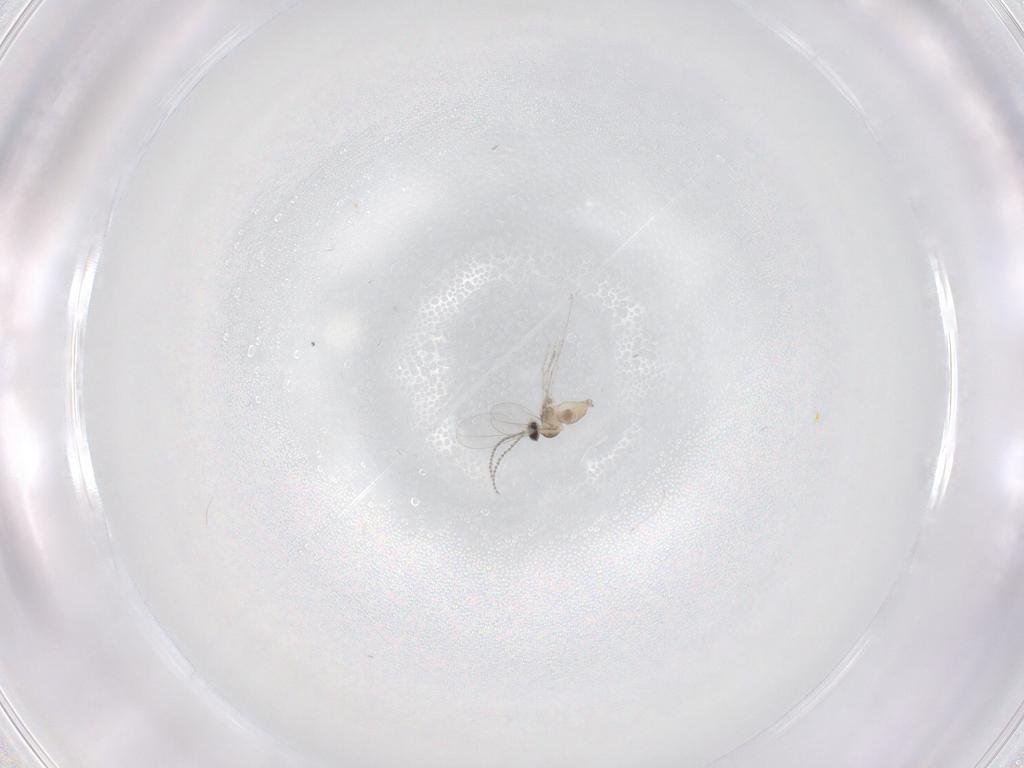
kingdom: Animalia
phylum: Arthropoda
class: Insecta
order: Diptera
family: Cecidomyiidae
